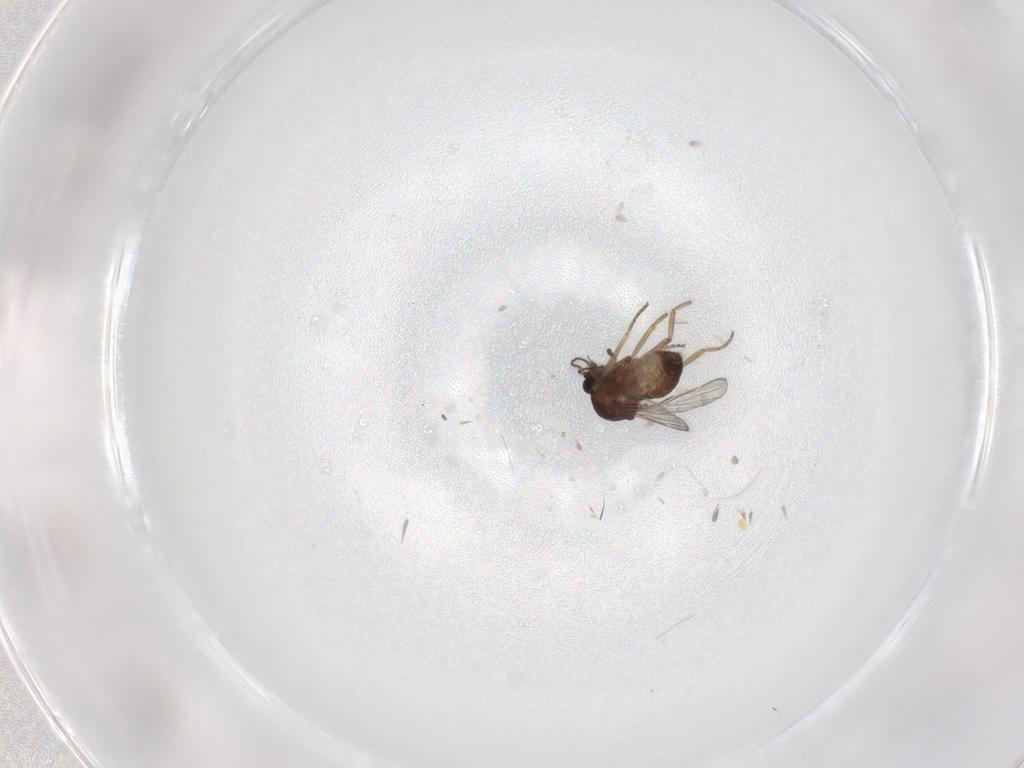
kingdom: Animalia
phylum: Arthropoda
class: Insecta
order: Diptera
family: Ceratopogonidae
